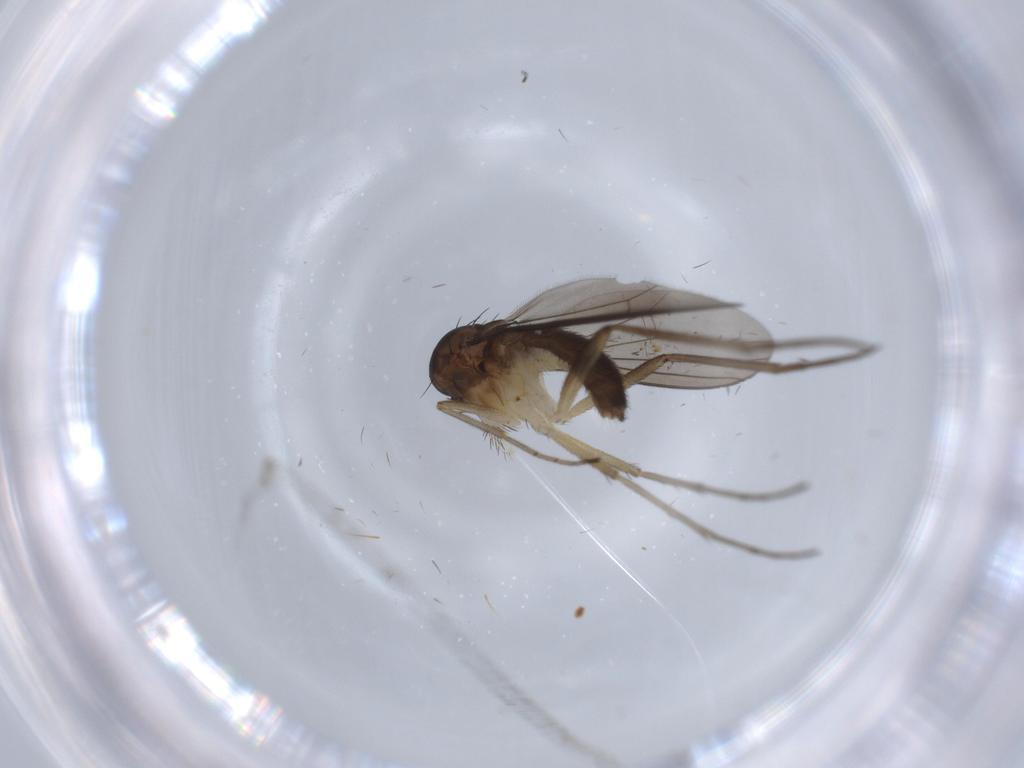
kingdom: Animalia
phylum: Arthropoda
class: Insecta
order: Diptera
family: Dolichopodidae
